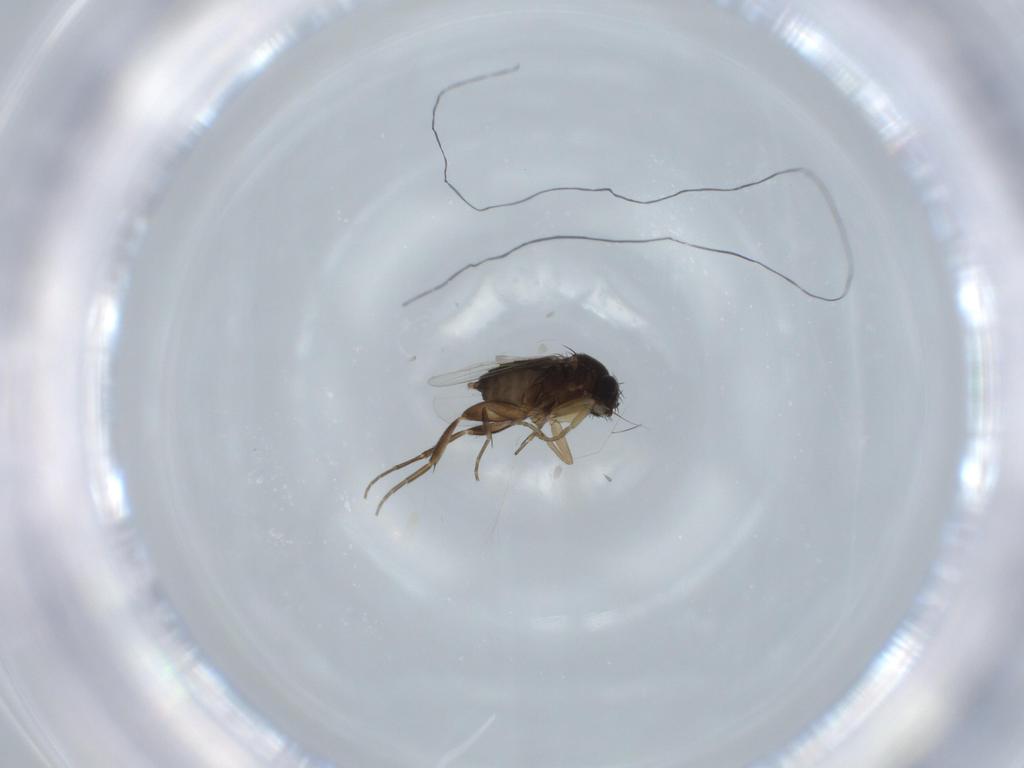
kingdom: Animalia
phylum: Arthropoda
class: Insecta
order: Diptera
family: Phoridae
